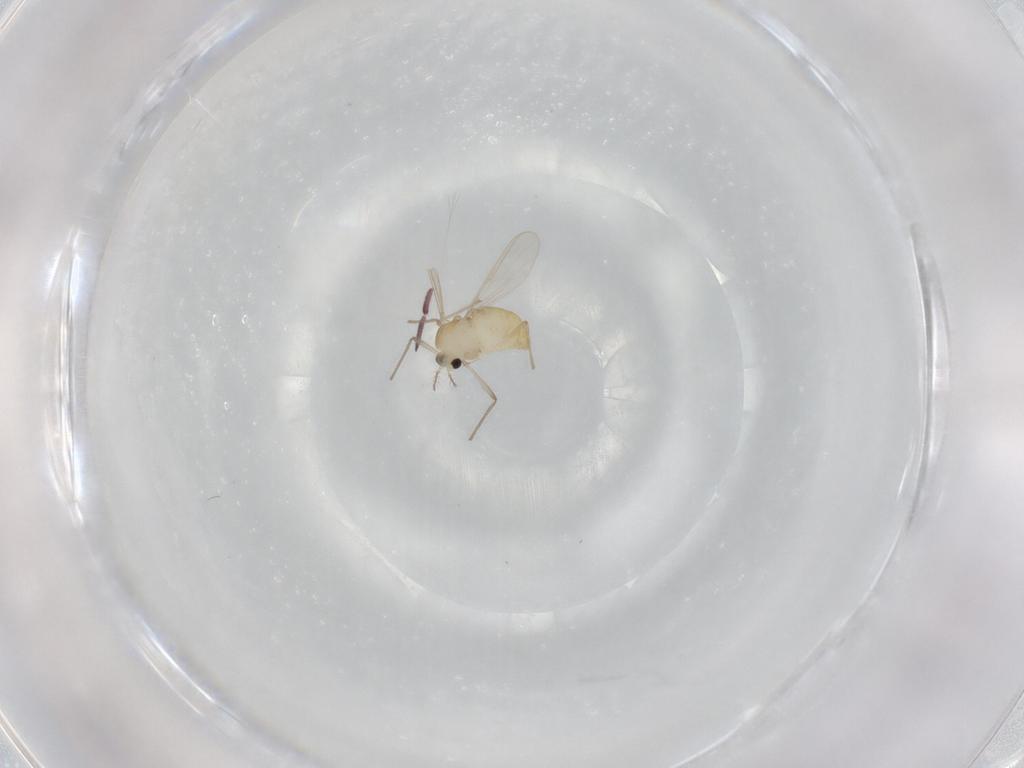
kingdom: Animalia
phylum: Arthropoda
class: Insecta
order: Diptera
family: Chironomidae
